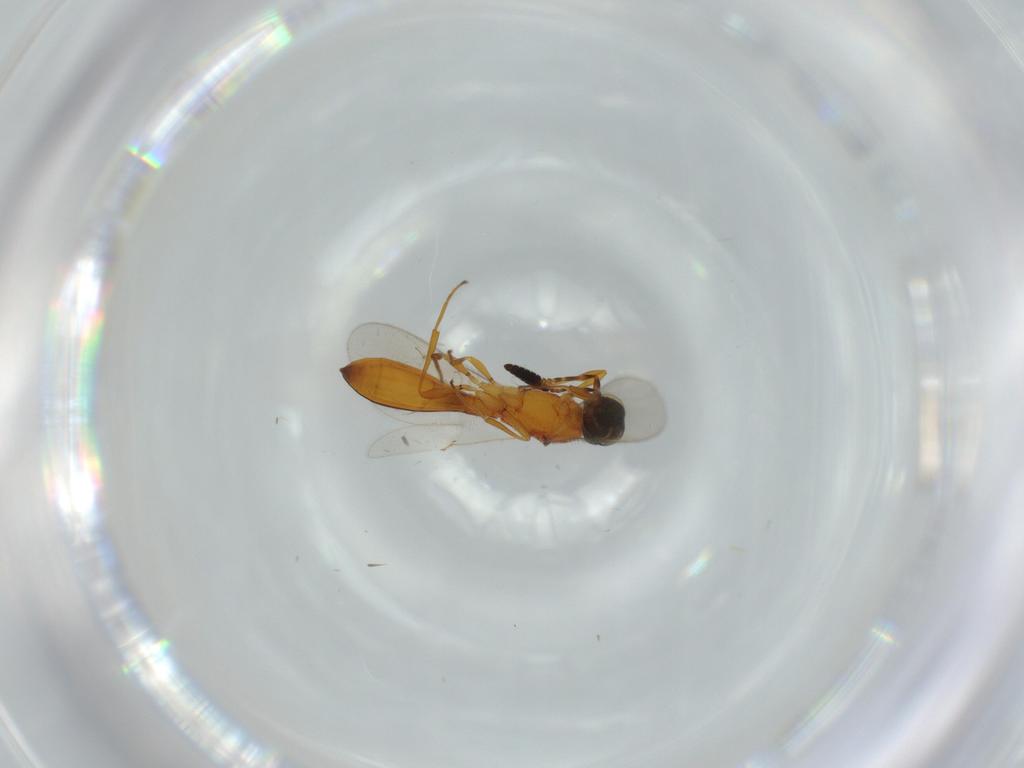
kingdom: Animalia
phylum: Arthropoda
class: Insecta
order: Hymenoptera
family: Scelionidae
